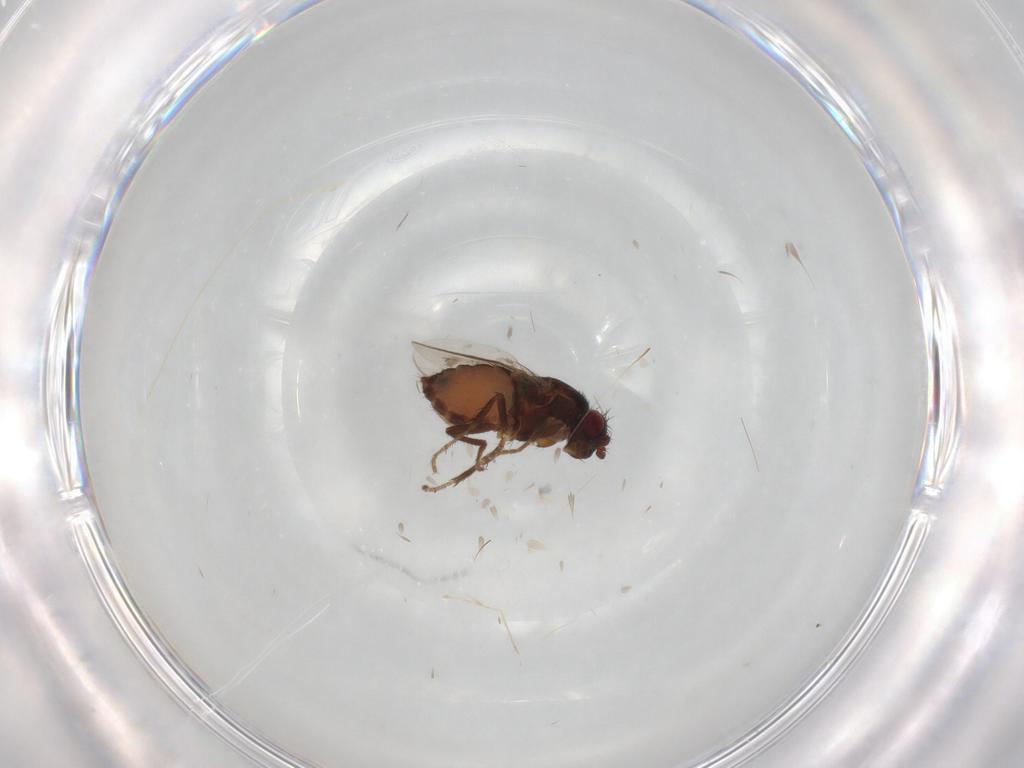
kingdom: Animalia
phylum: Arthropoda
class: Insecta
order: Diptera
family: Sphaeroceridae
